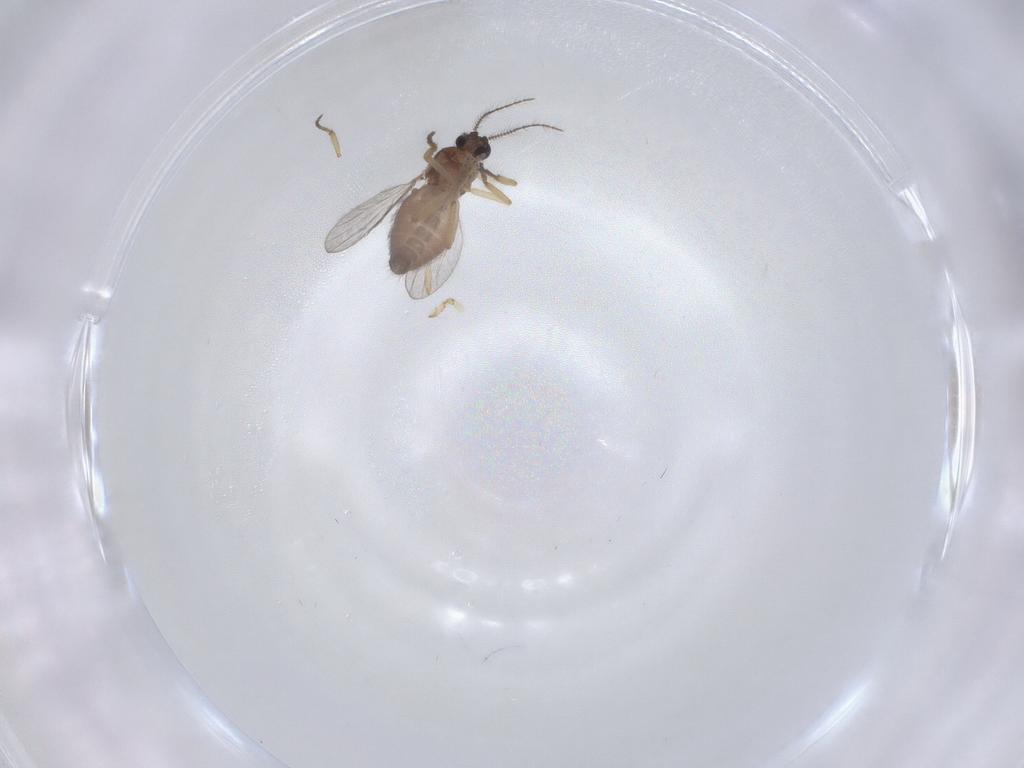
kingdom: Animalia
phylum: Arthropoda
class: Insecta
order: Diptera
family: Ceratopogonidae
